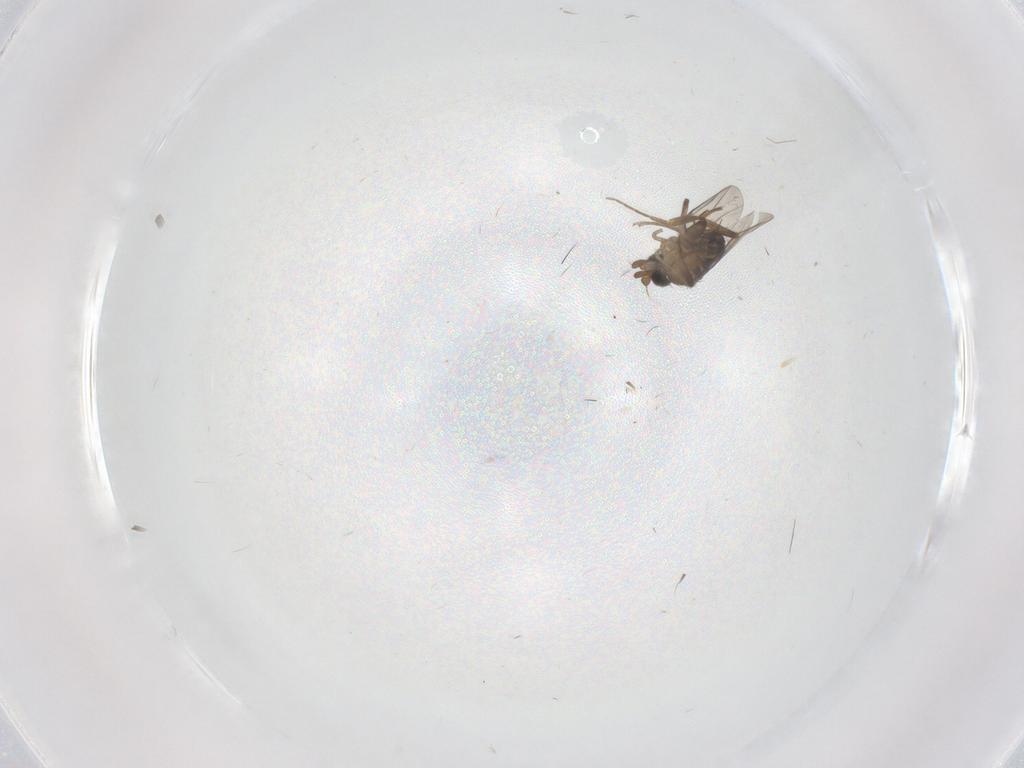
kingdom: Animalia
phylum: Arthropoda
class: Insecta
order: Diptera
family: Phoridae
